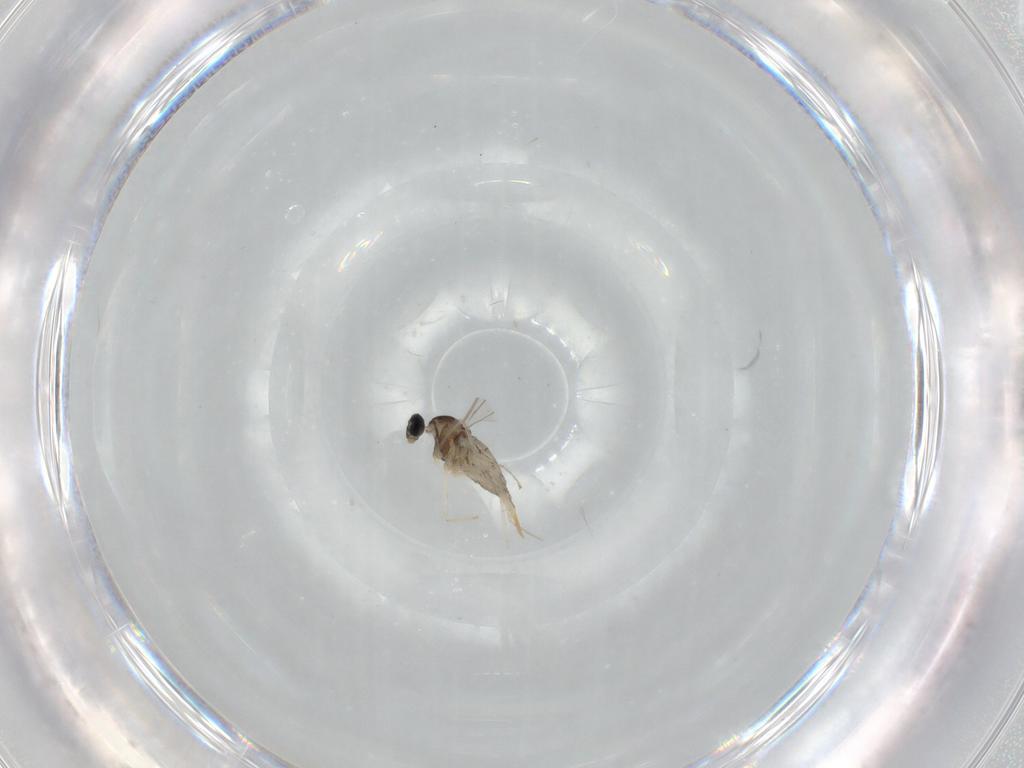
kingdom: Animalia
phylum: Arthropoda
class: Insecta
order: Diptera
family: Cecidomyiidae
